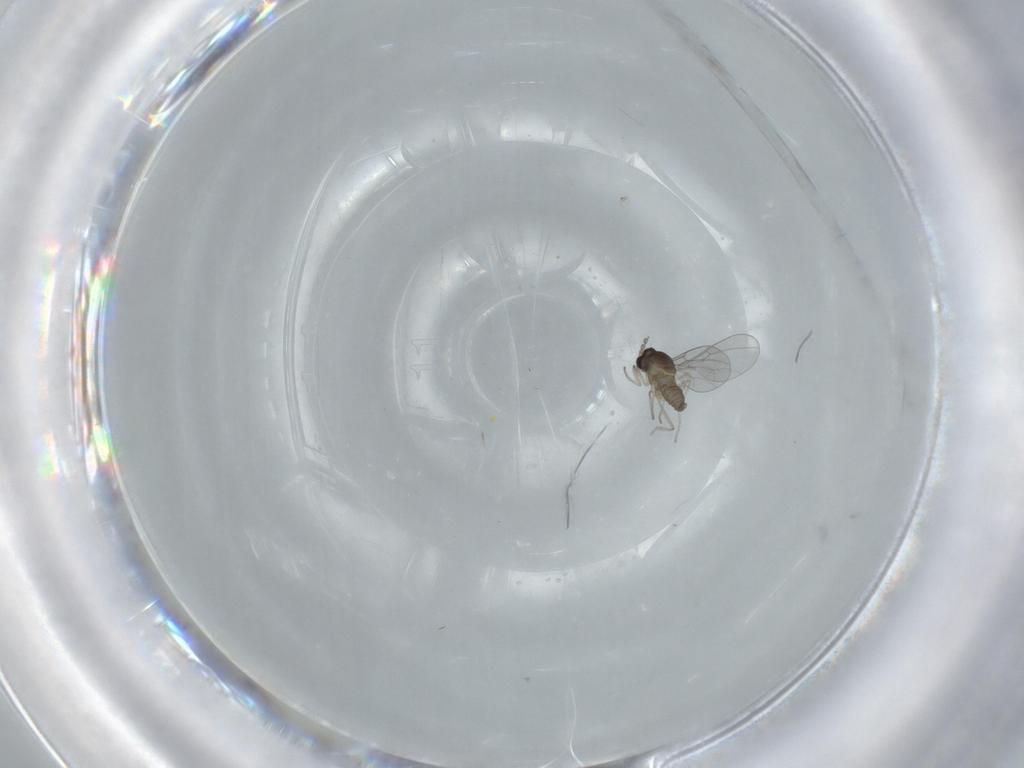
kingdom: Animalia
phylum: Arthropoda
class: Insecta
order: Diptera
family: Cecidomyiidae
